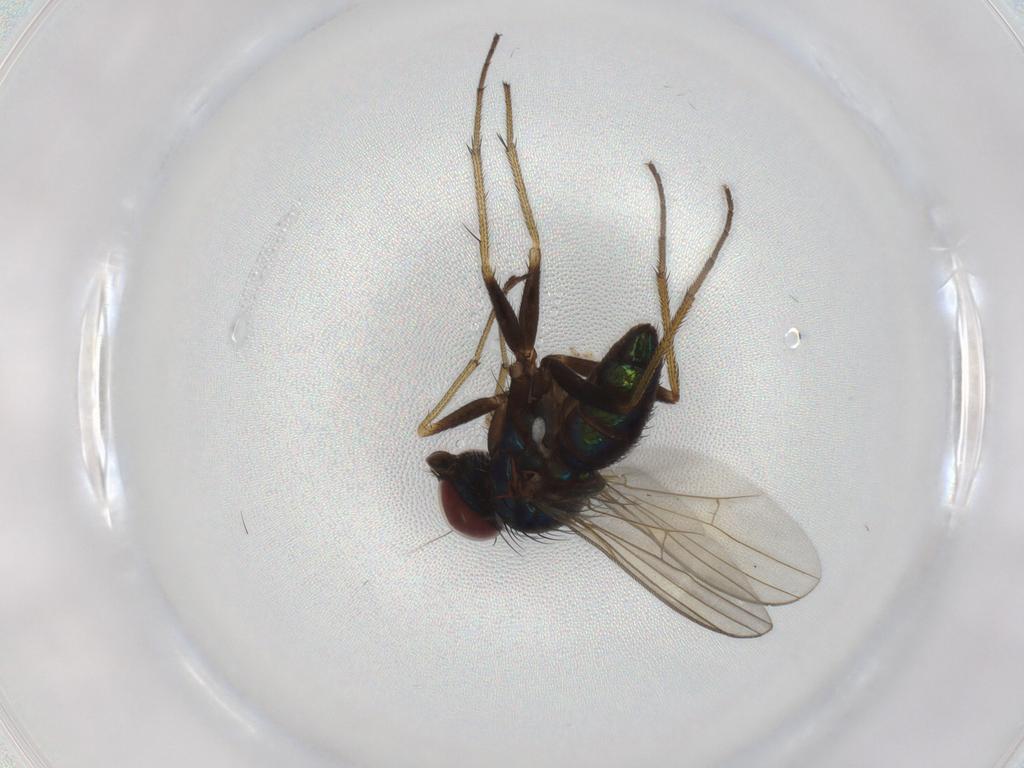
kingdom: Animalia
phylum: Arthropoda
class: Insecta
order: Diptera
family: Dolichopodidae
